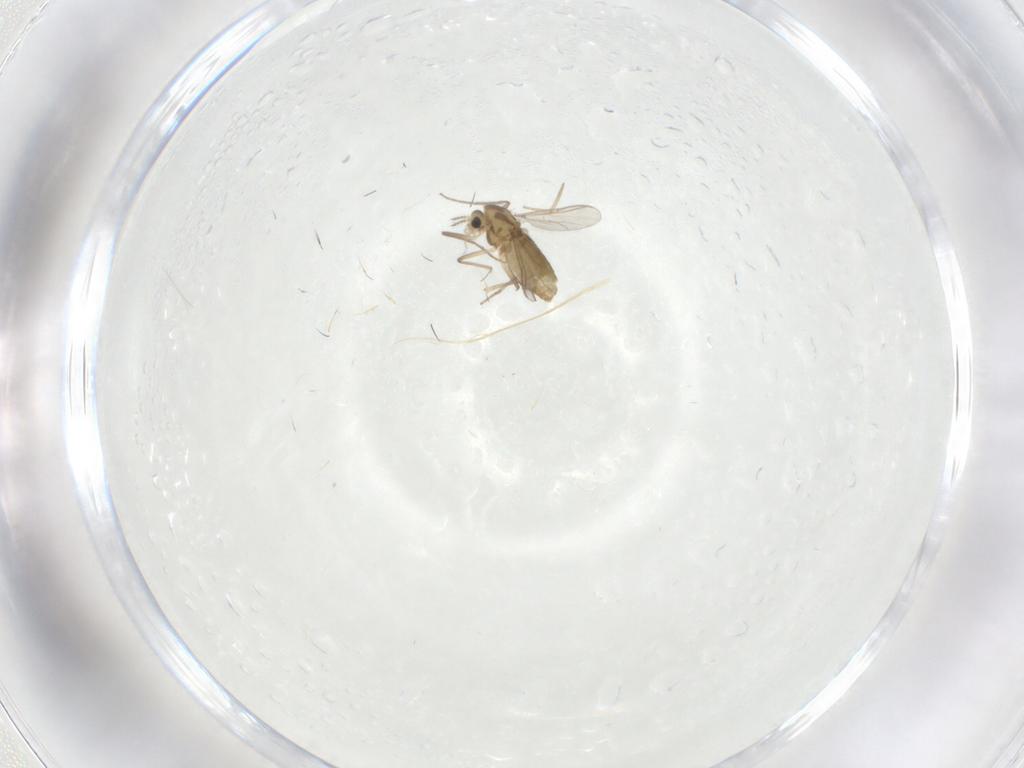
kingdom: Animalia
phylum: Arthropoda
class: Insecta
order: Diptera
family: Chironomidae
